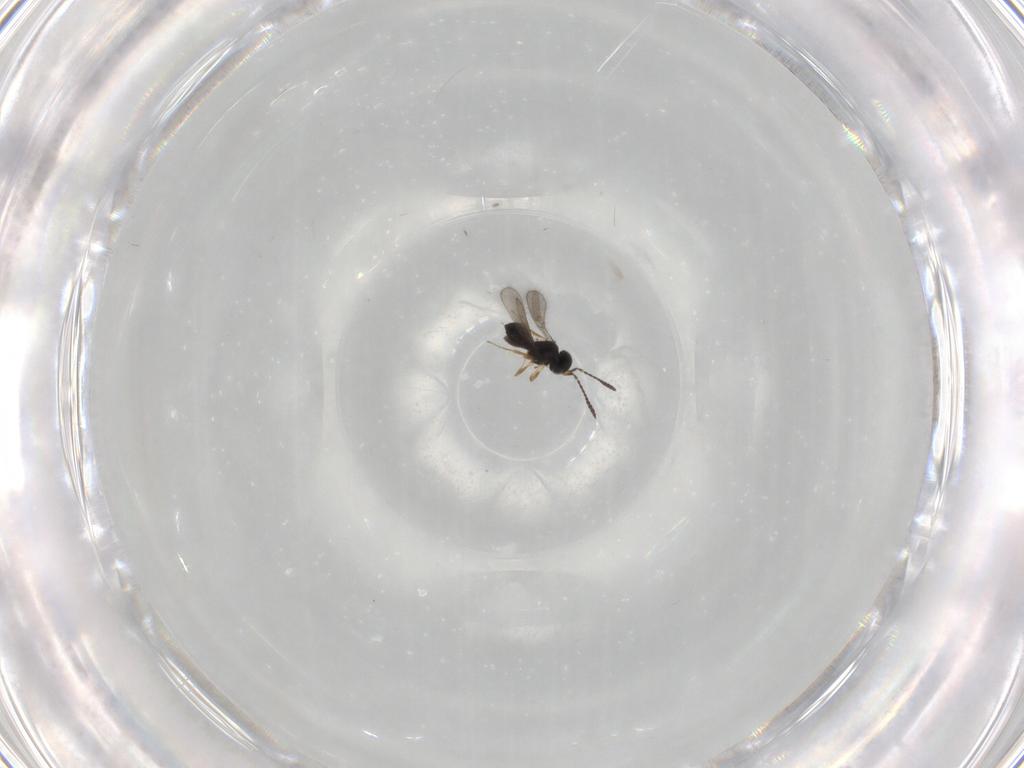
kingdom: Animalia
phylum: Arthropoda
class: Insecta
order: Hymenoptera
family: Scelionidae
